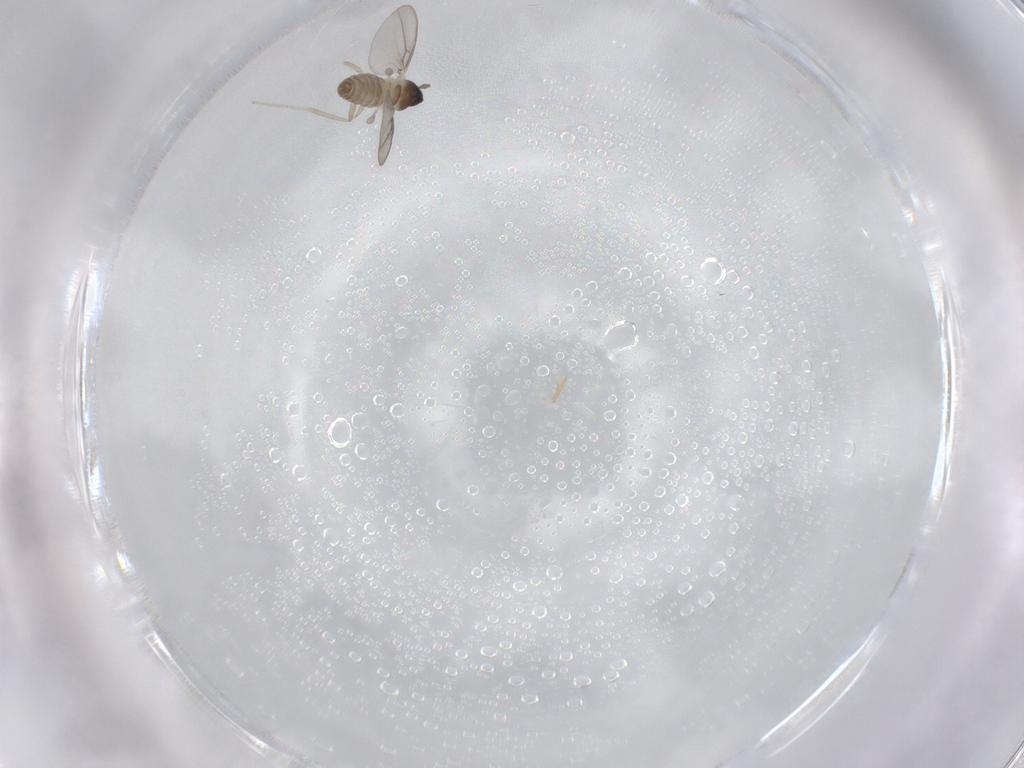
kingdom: Animalia
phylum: Arthropoda
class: Insecta
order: Diptera
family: Cecidomyiidae
